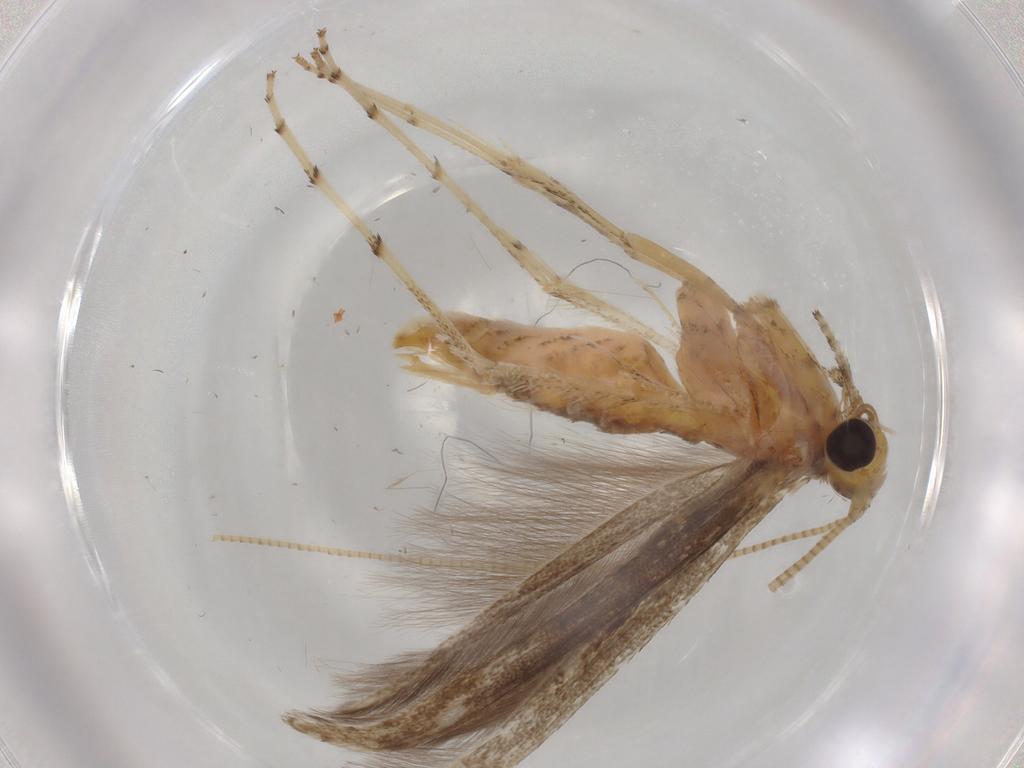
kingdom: Animalia
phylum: Arthropoda
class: Insecta
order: Lepidoptera
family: Gracillariidae
